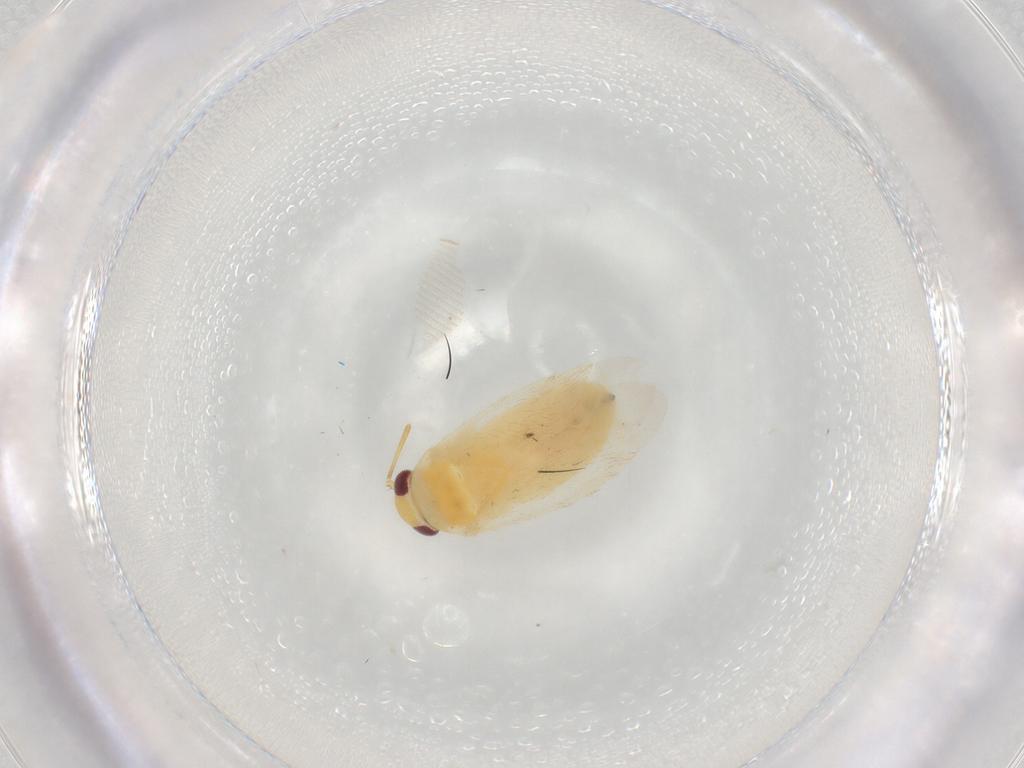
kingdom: Animalia
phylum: Arthropoda
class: Insecta
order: Hemiptera
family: Miridae
